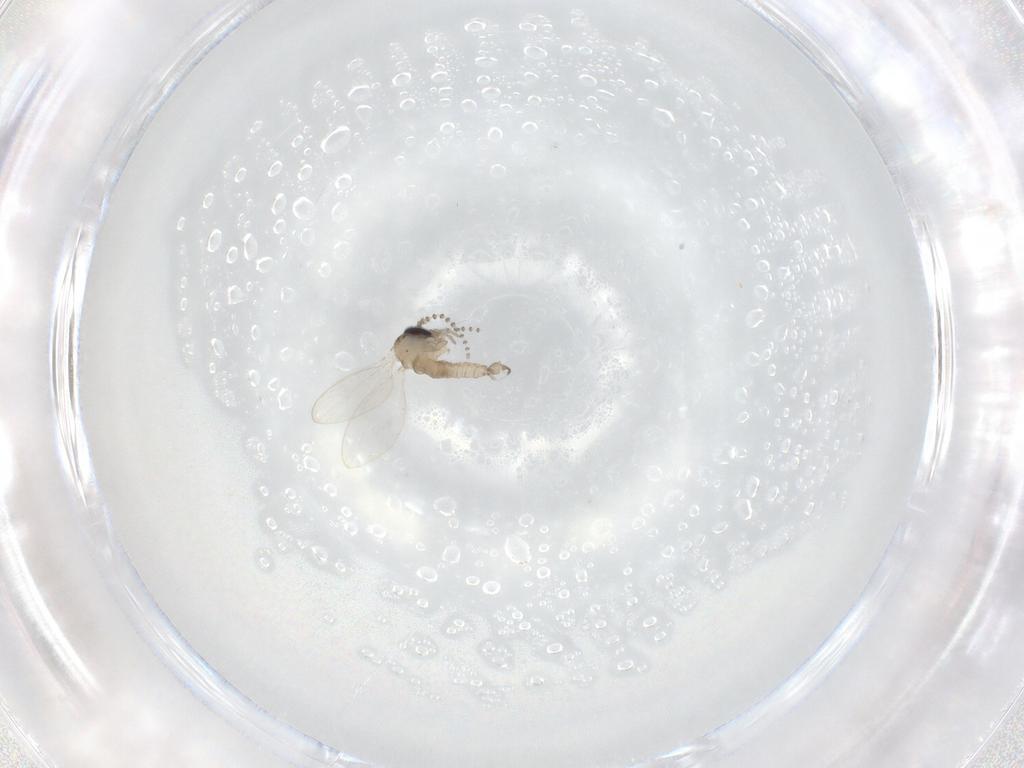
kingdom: Animalia
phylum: Arthropoda
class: Insecta
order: Diptera
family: Psychodidae
